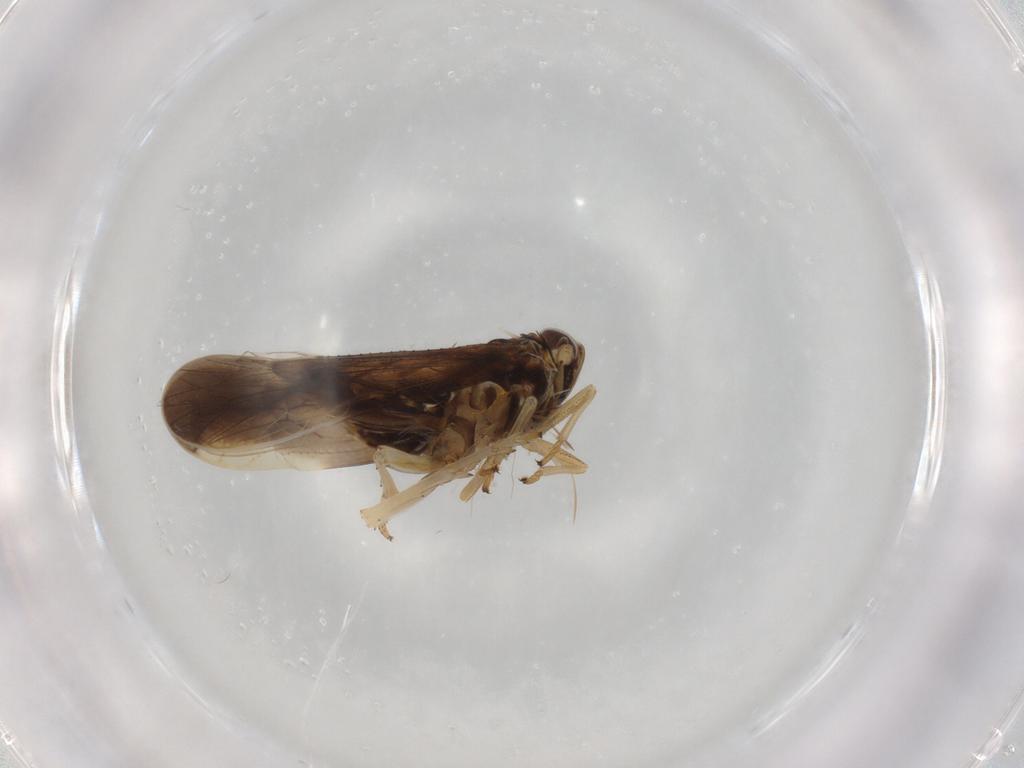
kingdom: Animalia
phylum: Arthropoda
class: Insecta
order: Hemiptera
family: Delphacidae
